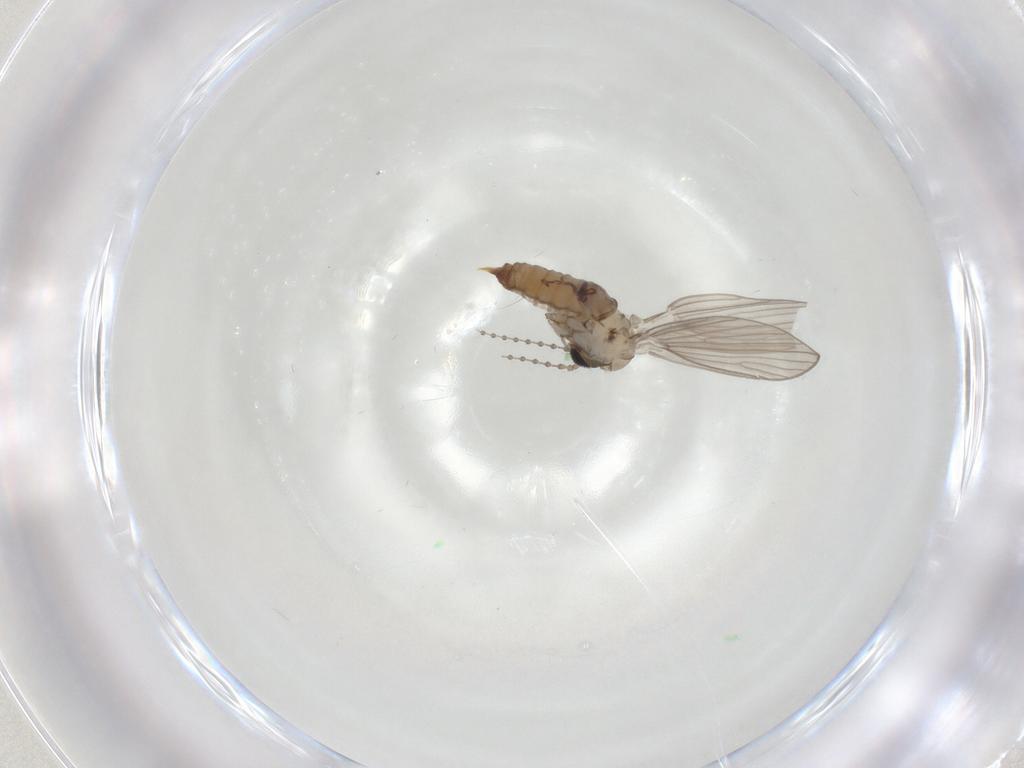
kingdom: Animalia
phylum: Arthropoda
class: Insecta
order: Diptera
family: Psychodidae
